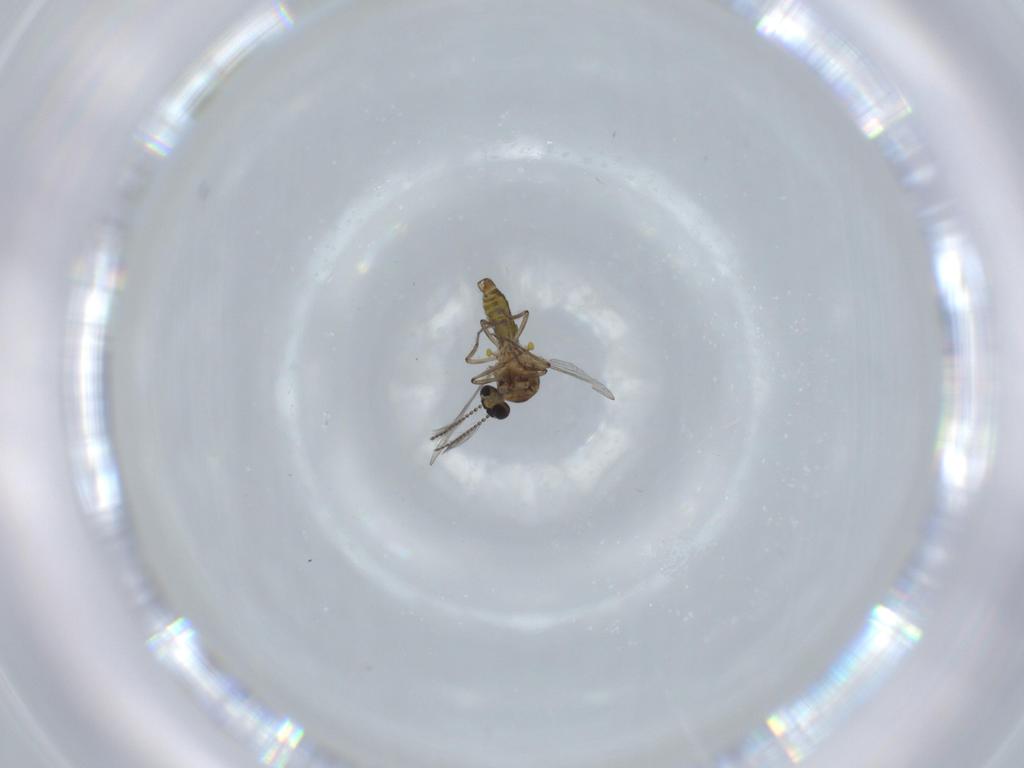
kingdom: Animalia
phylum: Arthropoda
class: Insecta
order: Diptera
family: Ceratopogonidae
